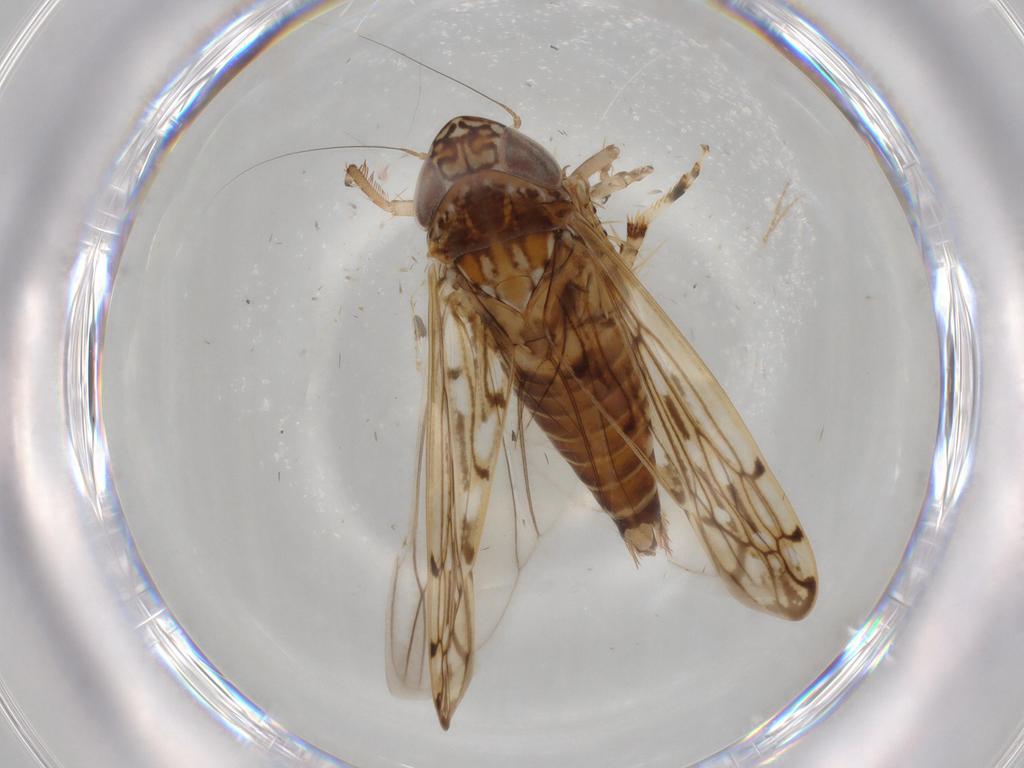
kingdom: Animalia
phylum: Arthropoda
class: Insecta
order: Hemiptera
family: Cicadellidae
